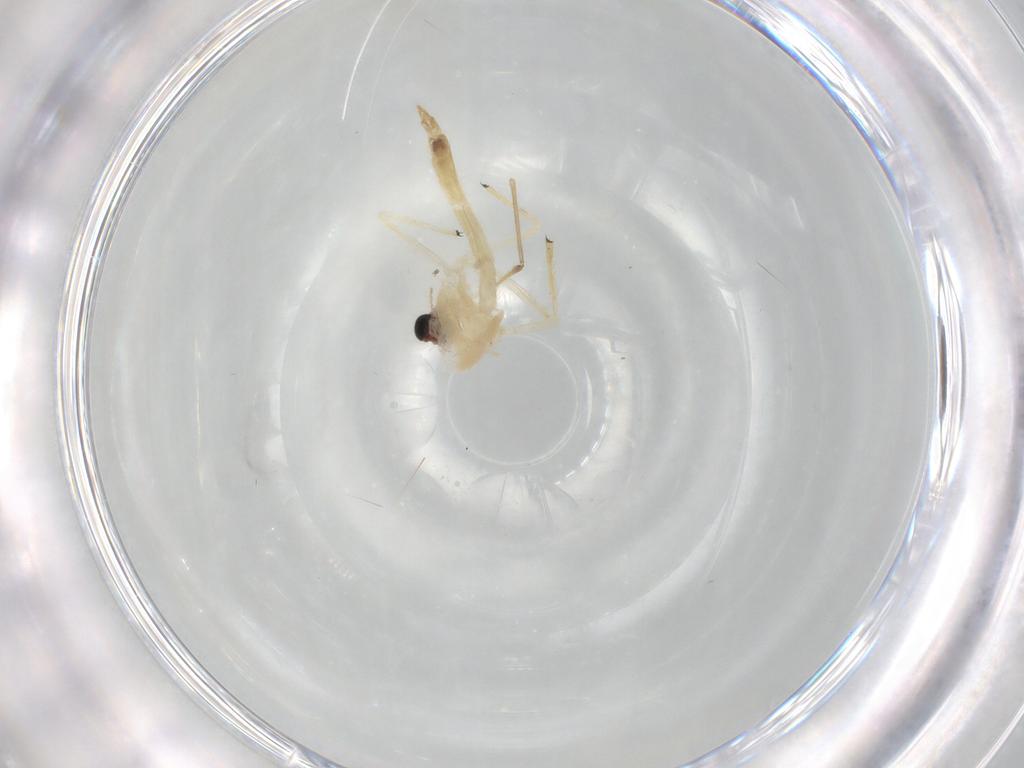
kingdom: Animalia
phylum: Arthropoda
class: Insecta
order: Diptera
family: Chironomidae
